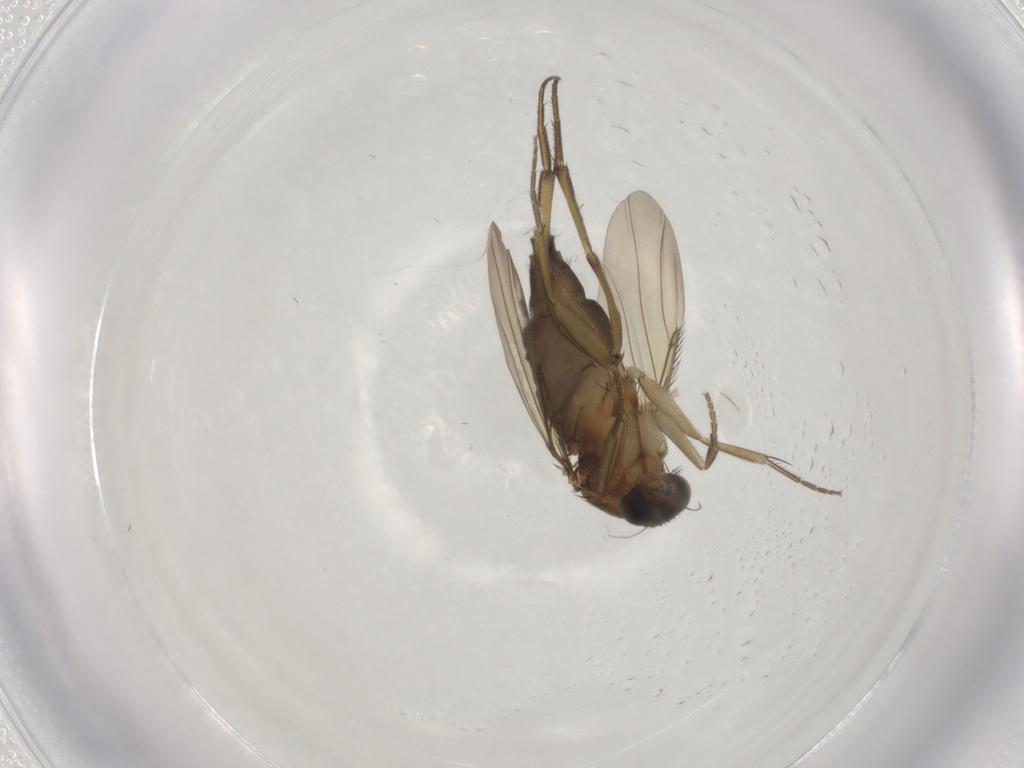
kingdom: Animalia
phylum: Arthropoda
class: Insecta
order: Diptera
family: Phoridae
